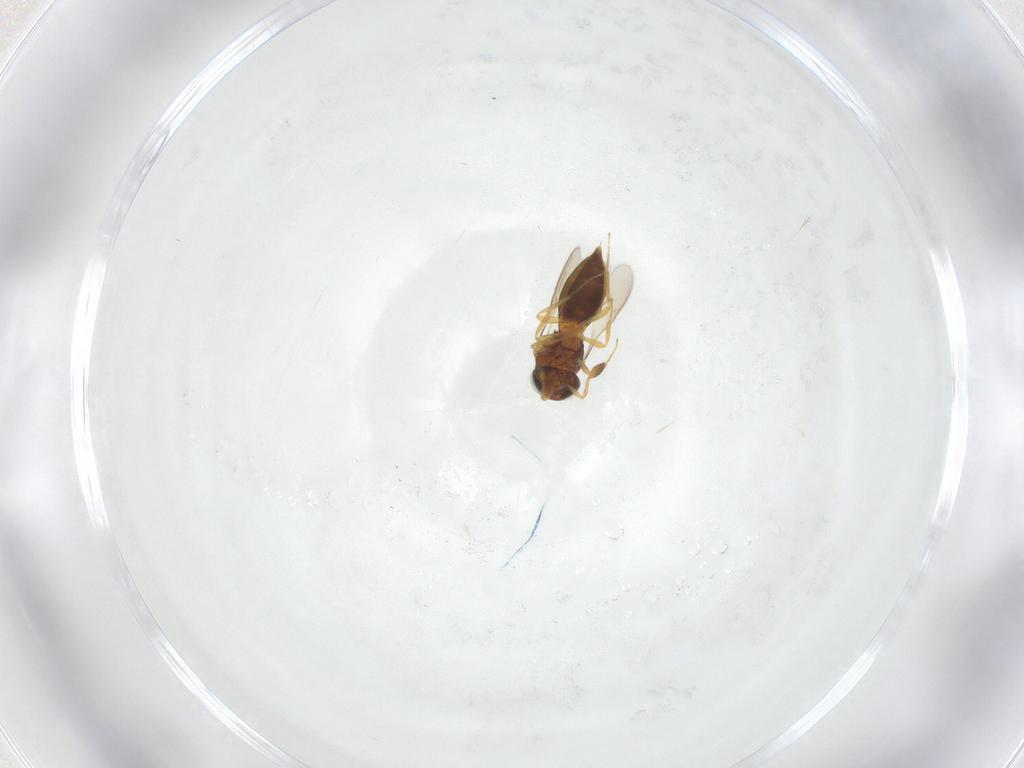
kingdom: Animalia
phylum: Arthropoda
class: Insecta
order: Hymenoptera
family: Scelionidae
